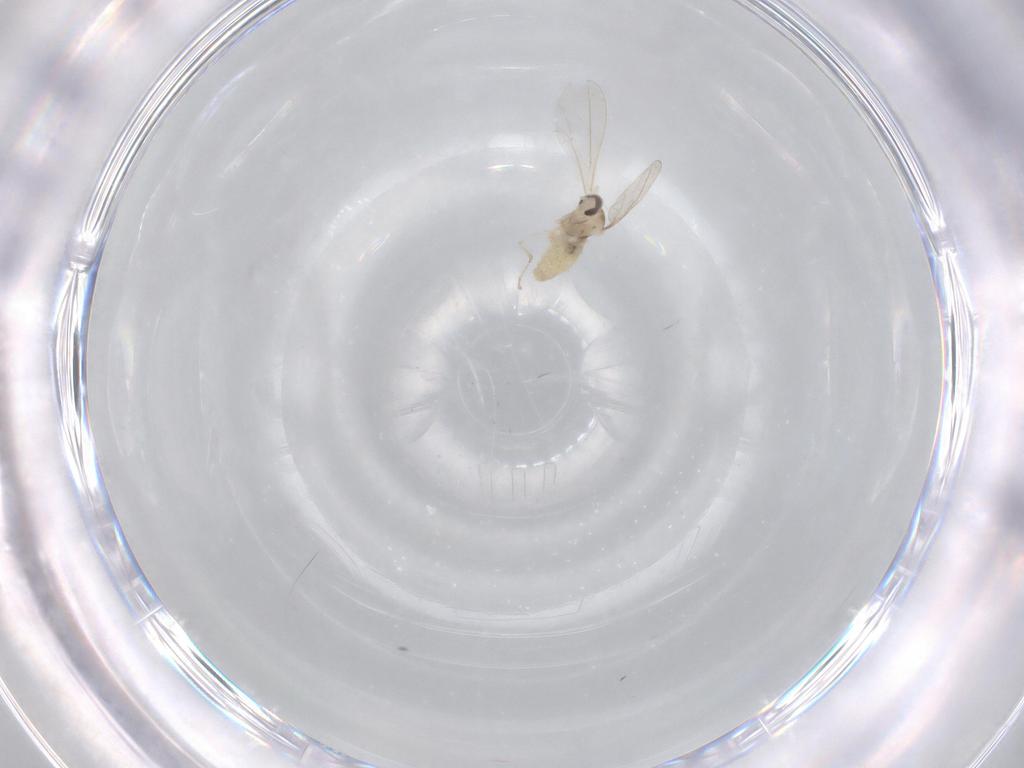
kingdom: Animalia
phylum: Arthropoda
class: Insecta
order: Diptera
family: Cecidomyiidae
